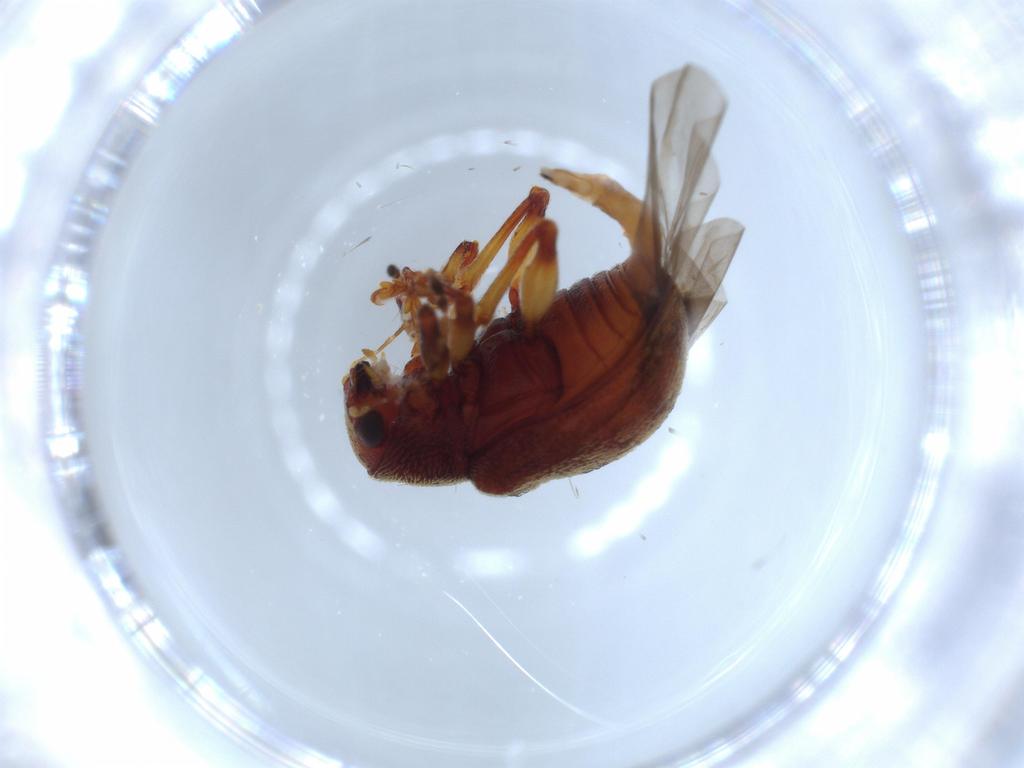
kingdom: Animalia
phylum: Arthropoda
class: Insecta
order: Coleoptera
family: Chrysomelidae
